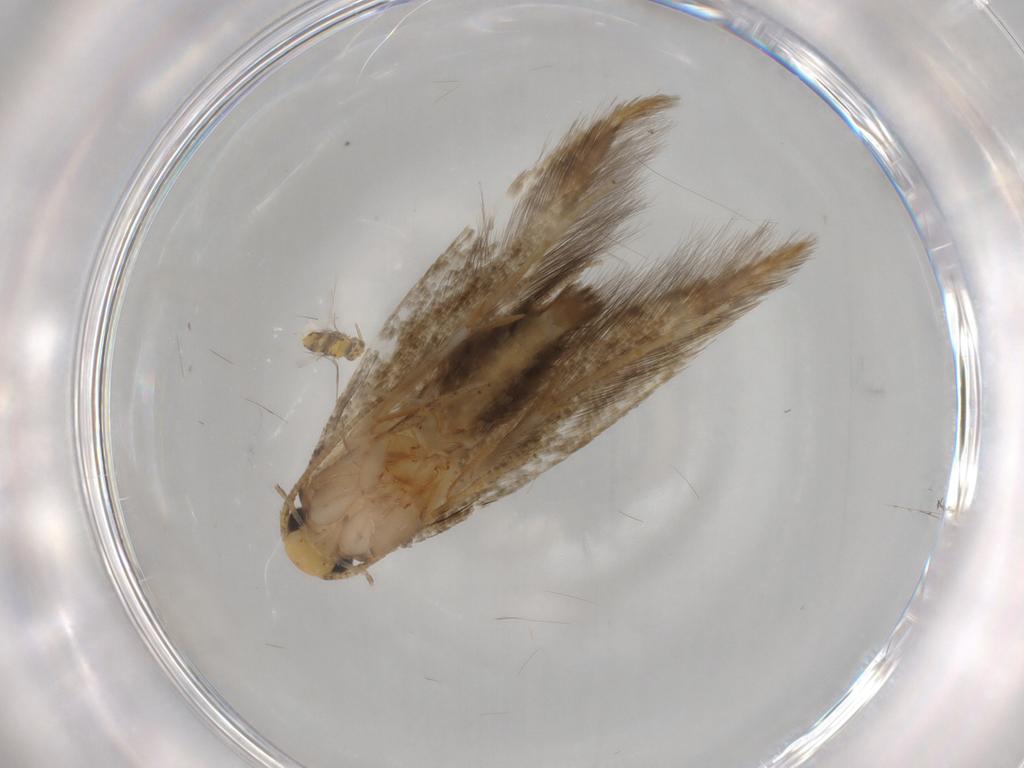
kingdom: Animalia
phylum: Arthropoda
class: Insecta
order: Lepidoptera
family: Tineidae
